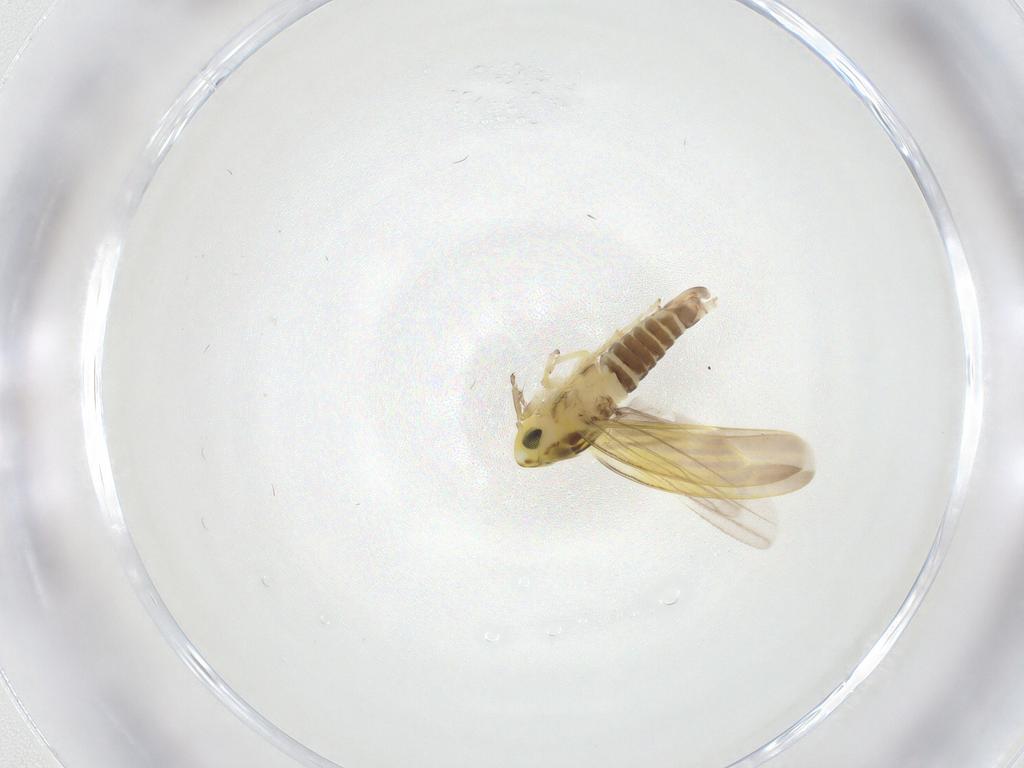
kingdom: Animalia
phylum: Arthropoda
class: Insecta
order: Hemiptera
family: Cicadellidae
